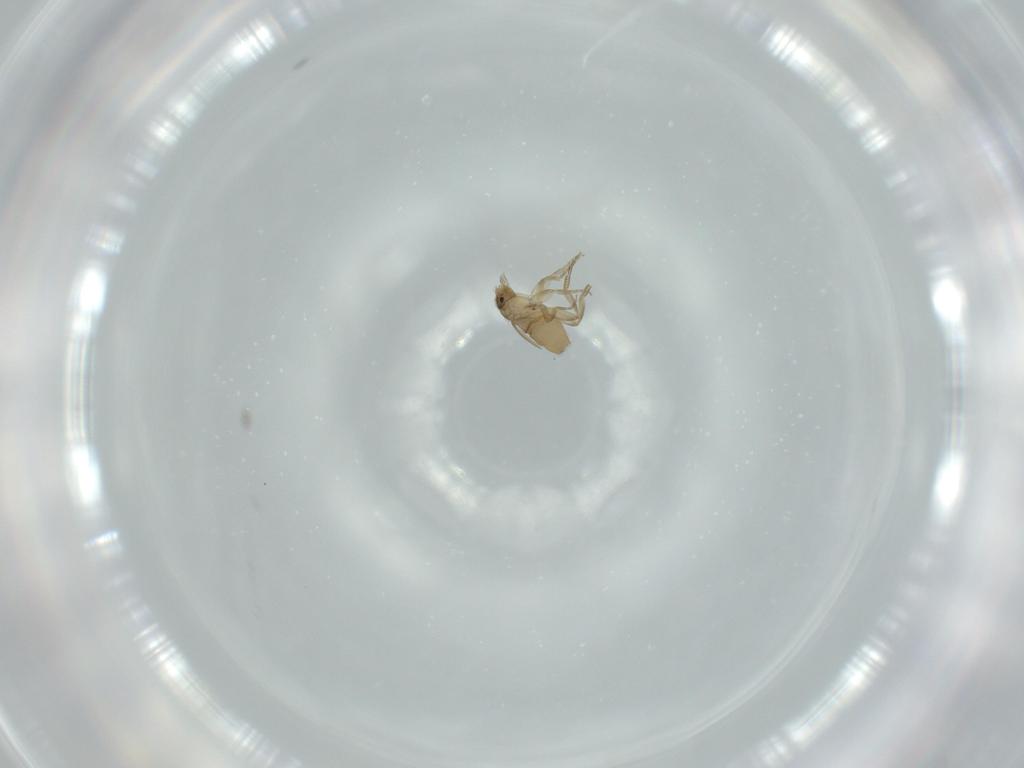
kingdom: Animalia
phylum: Arthropoda
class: Insecta
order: Diptera
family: Phoridae
